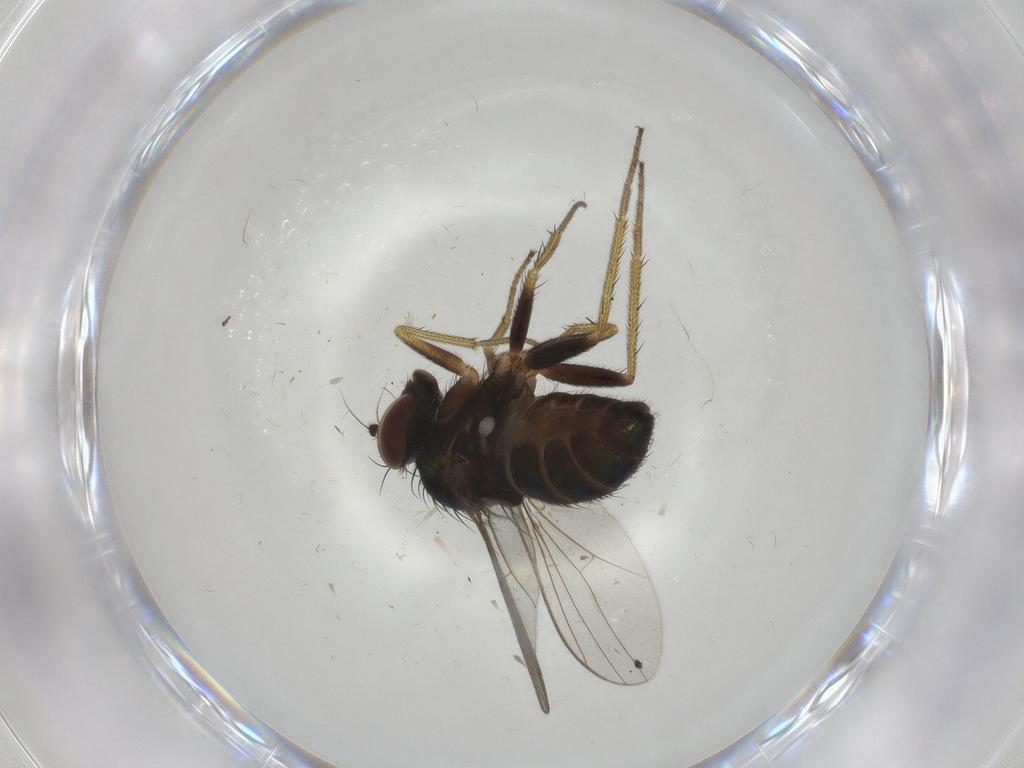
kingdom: Animalia
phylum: Arthropoda
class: Insecta
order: Diptera
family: Dolichopodidae
